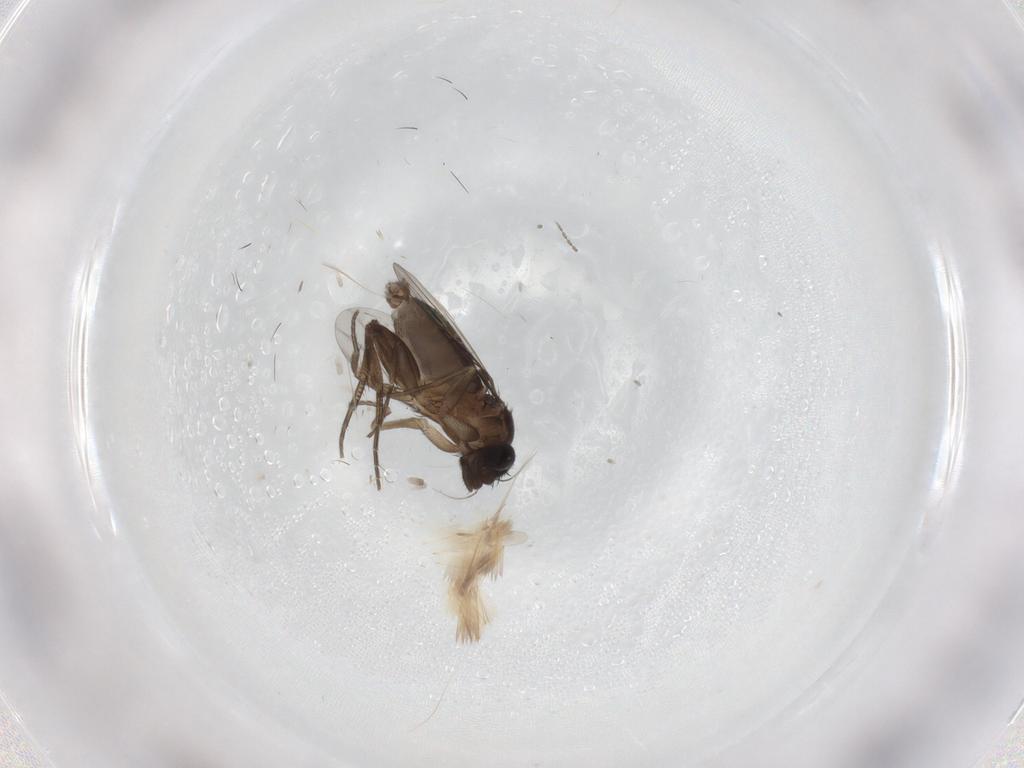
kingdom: Animalia
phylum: Arthropoda
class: Insecta
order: Diptera
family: Phoridae
